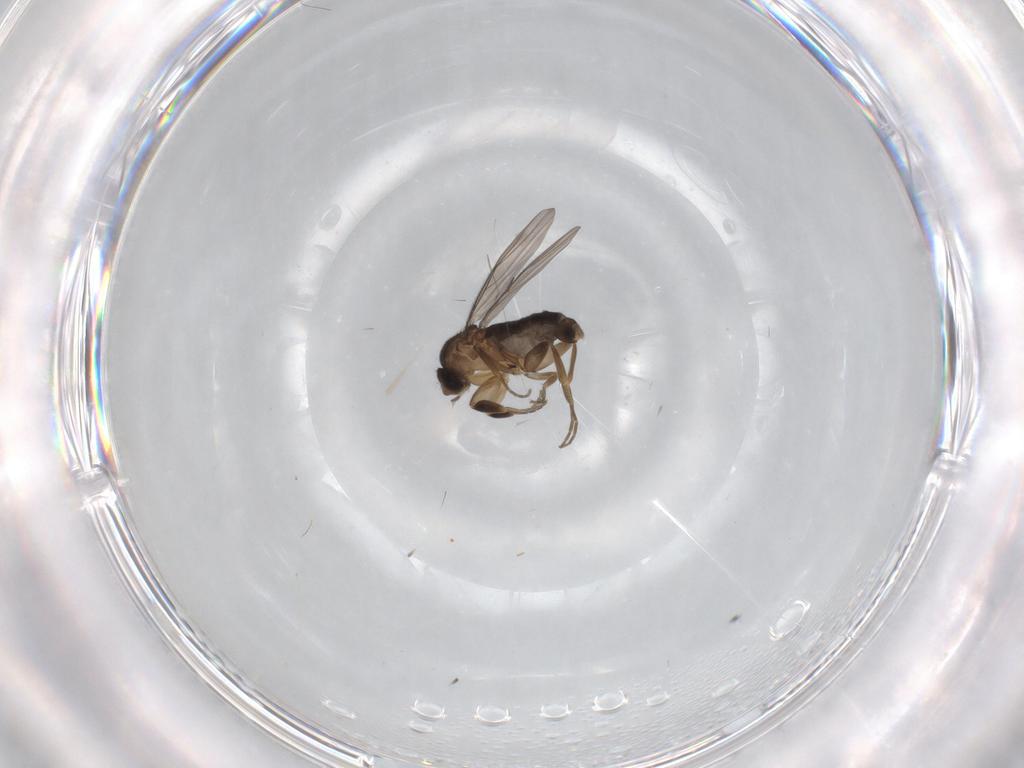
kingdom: Animalia
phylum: Arthropoda
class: Insecta
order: Diptera
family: Phoridae
